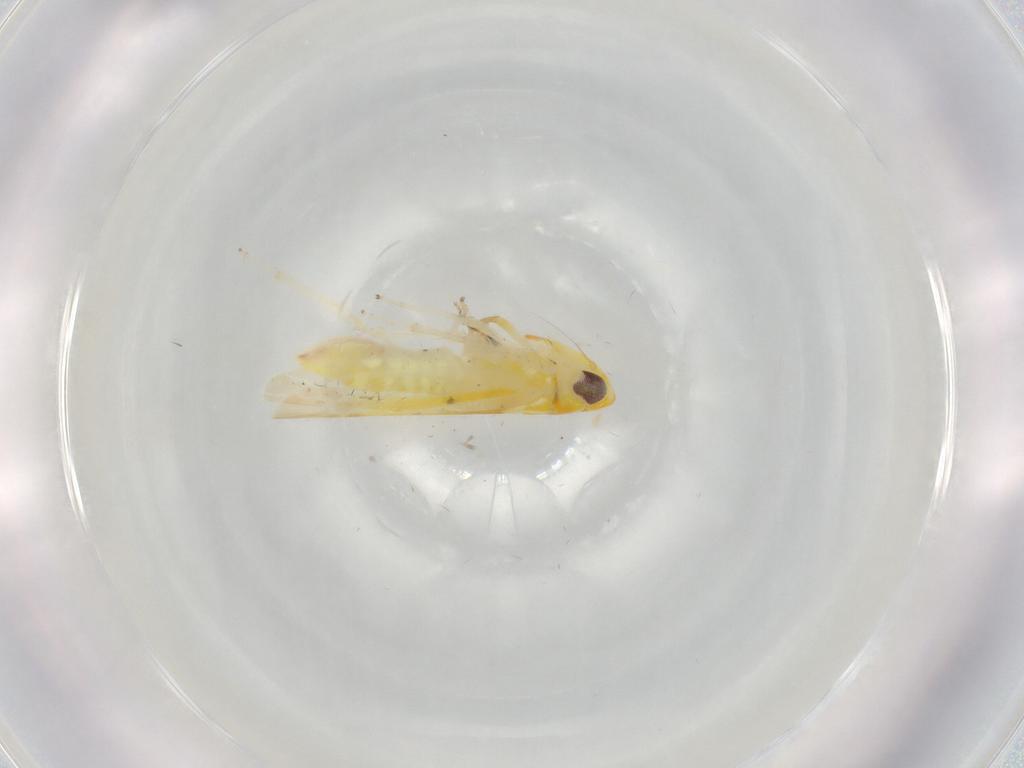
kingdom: Animalia
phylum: Arthropoda
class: Insecta
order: Hemiptera
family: Cicadellidae
